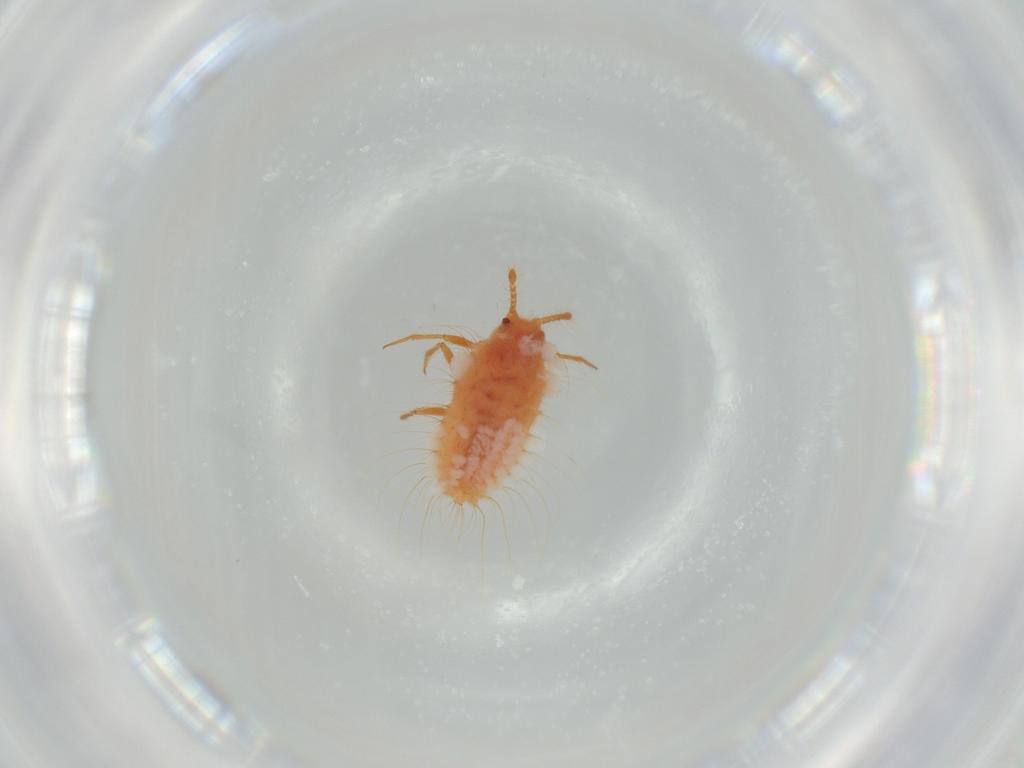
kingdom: Animalia
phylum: Arthropoda
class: Insecta
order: Hemiptera
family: Coccoidea_incertae_sedis
